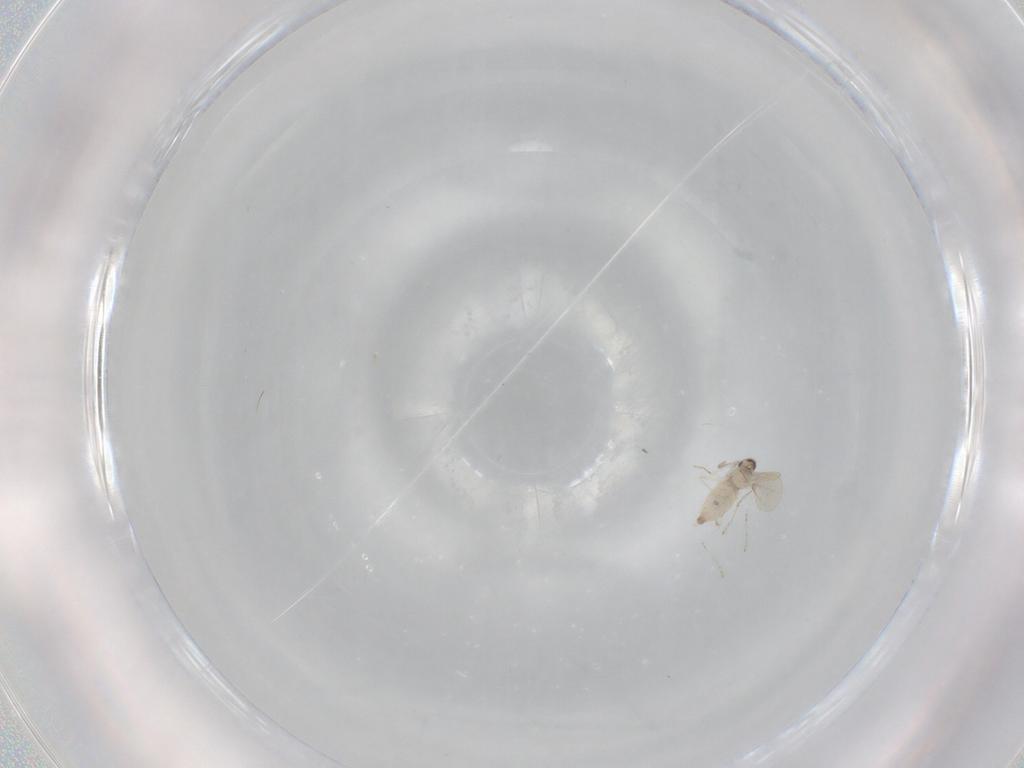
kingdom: Animalia
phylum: Arthropoda
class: Insecta
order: Diptera
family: Cecidomyiidae
